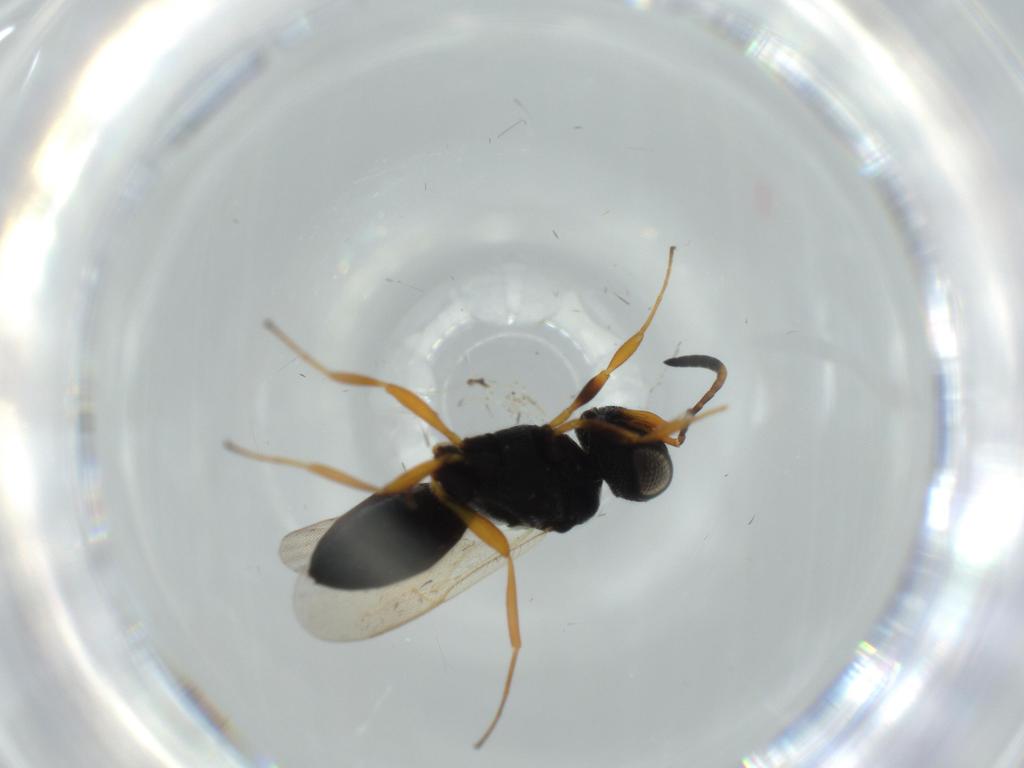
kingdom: Animalia
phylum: Arthropoda
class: Insecta
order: Hymenoptera
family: Scelionidae
